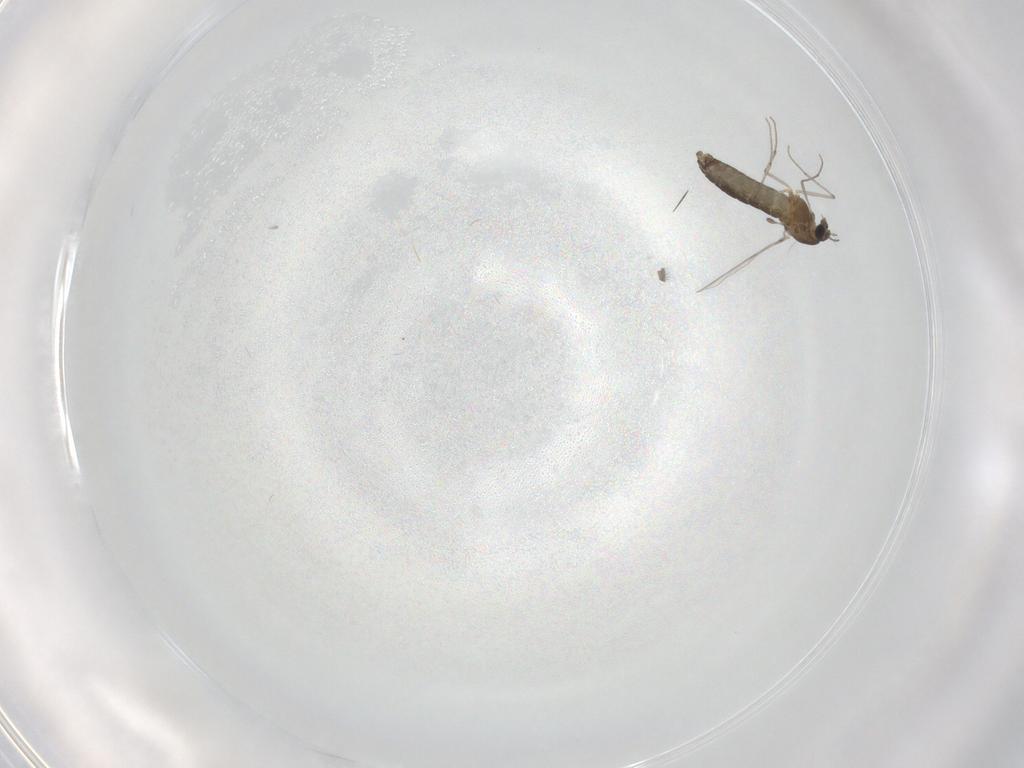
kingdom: Animalia
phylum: Arthropoda
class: Insecta
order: Diptera
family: Chironomidae
